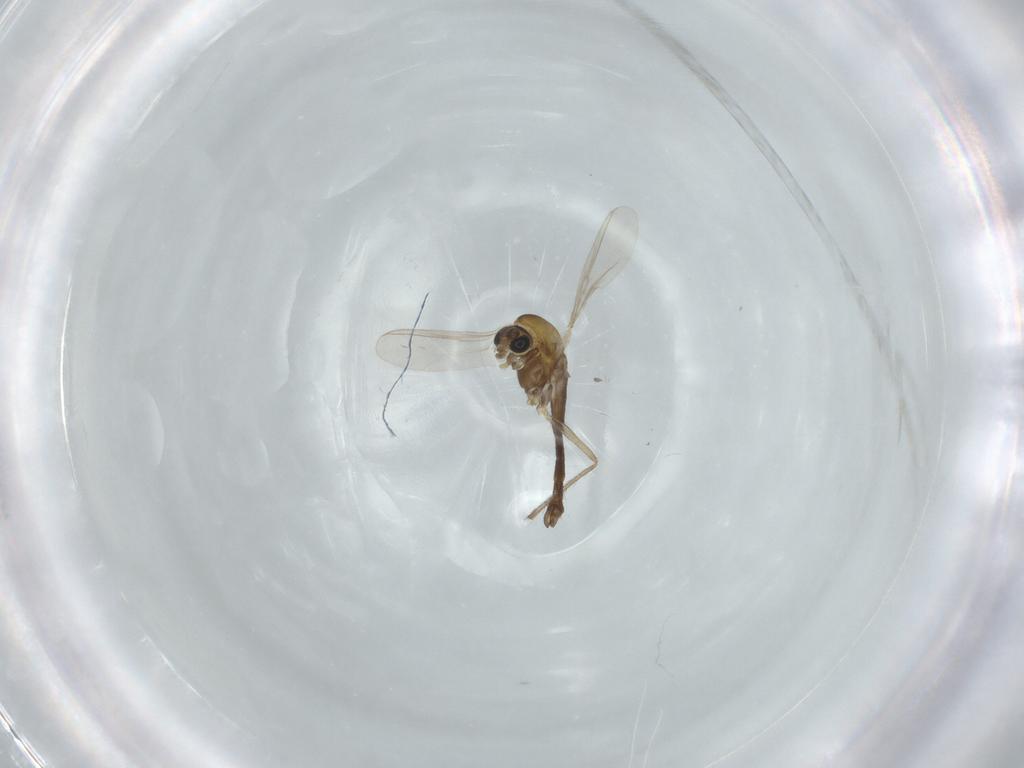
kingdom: Animalia
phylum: Arthropoda
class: Insecta
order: Diptera
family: Chironomidae
